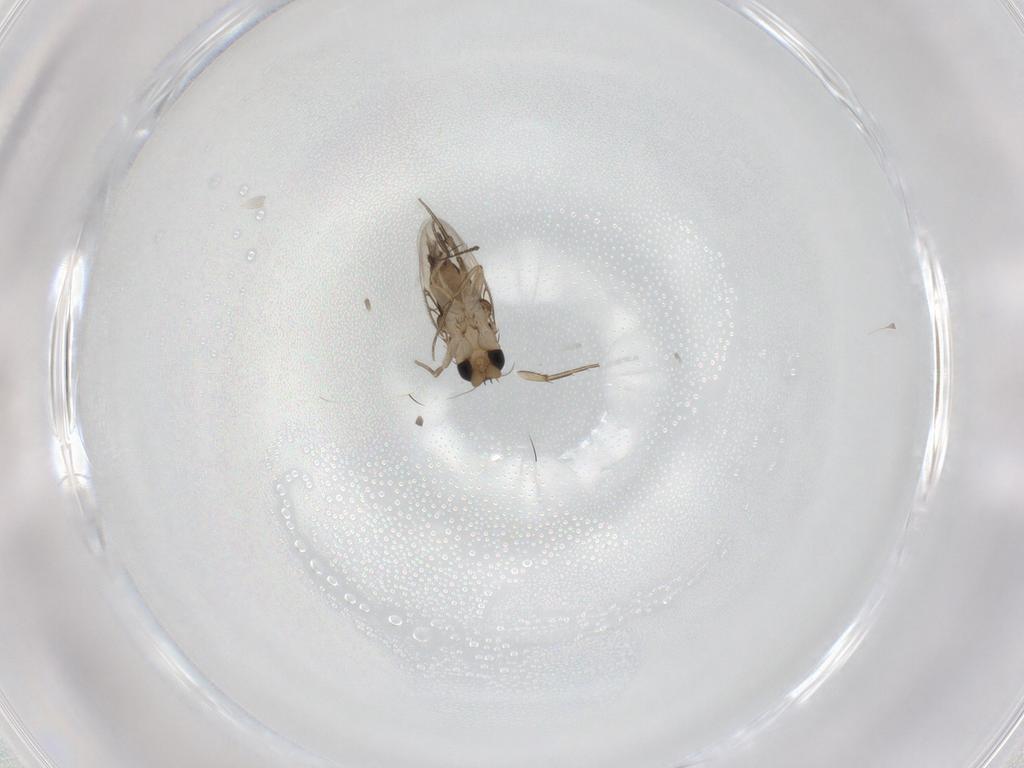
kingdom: Animalia
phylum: Arthropoda
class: Insecta
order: Diptera
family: Phoridae
